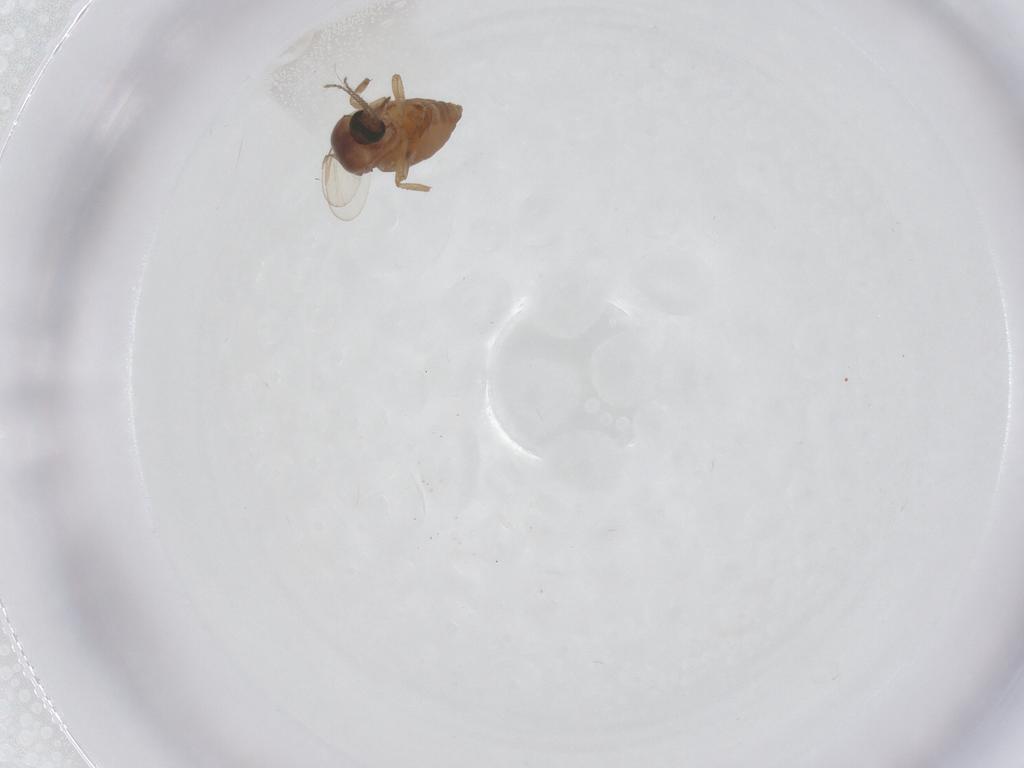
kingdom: Animalia
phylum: Arthropoda
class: Insecta
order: Diptera
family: Ceratopogonidae
